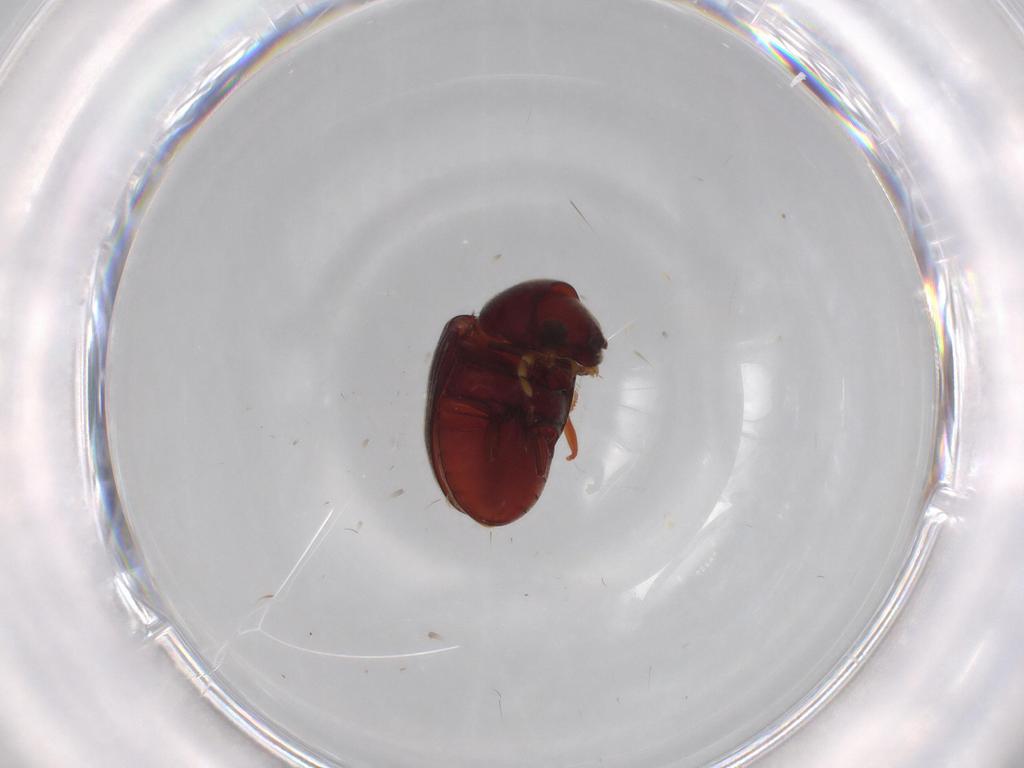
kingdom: Animalia
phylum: Arthropoda
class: Insecta
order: Coleoptera
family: Ptinidae
